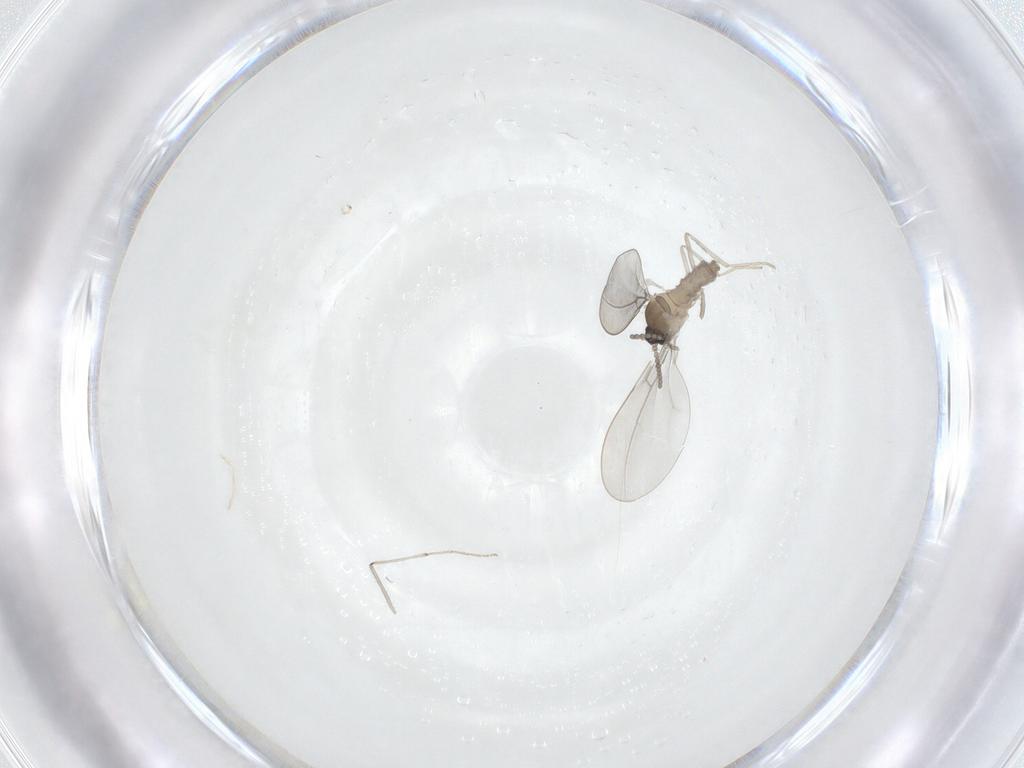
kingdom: Animalia
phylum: Arthropoda
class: Insecta
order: Diptera
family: Cecidomyiidae
